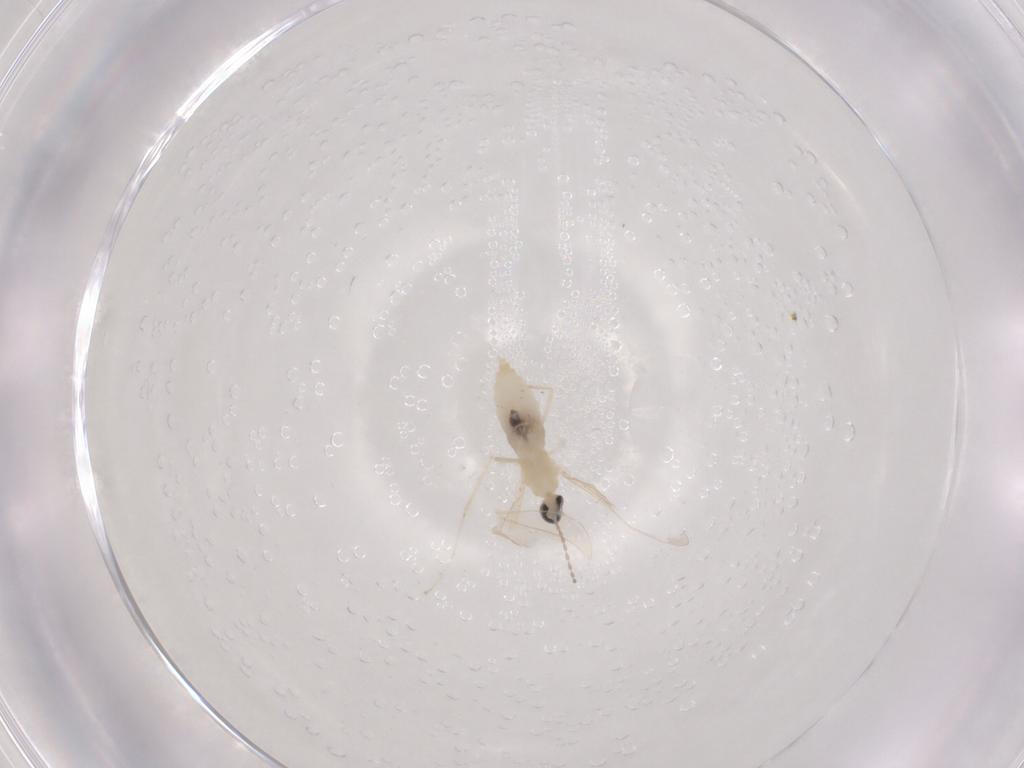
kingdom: Animalia
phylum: Arthropoda
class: Insecta
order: Diptera
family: Cecidomyiidae
